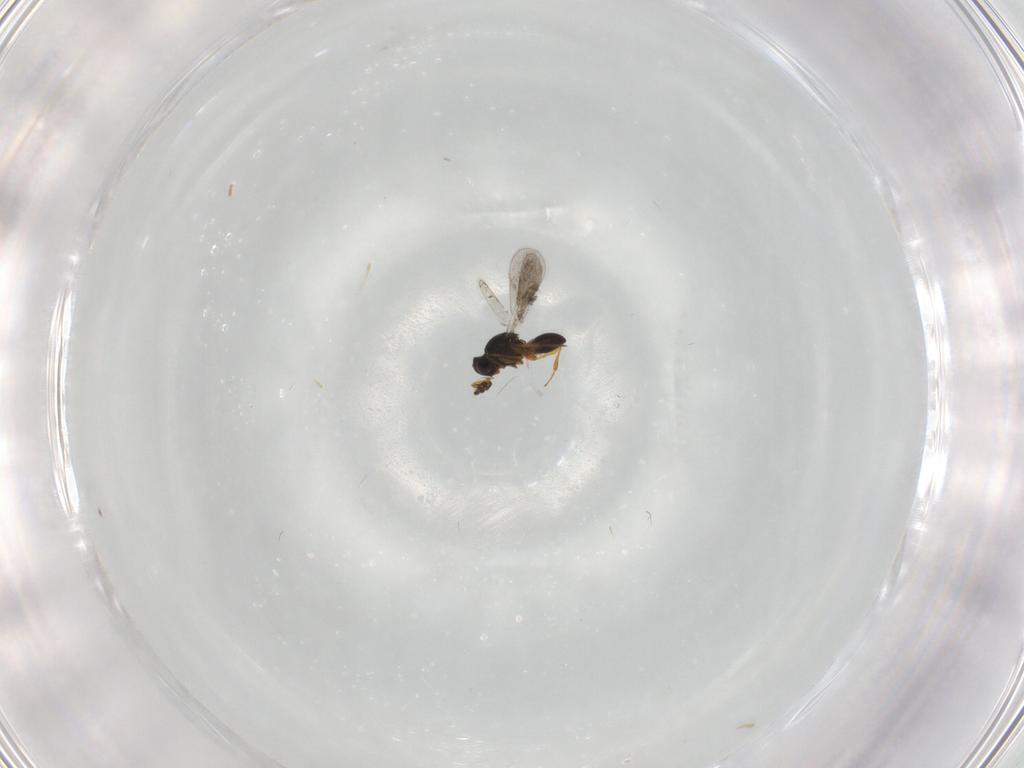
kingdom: Animalia
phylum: Arthropoda
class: Insecta
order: Hymenoptera
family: Platygastridae
